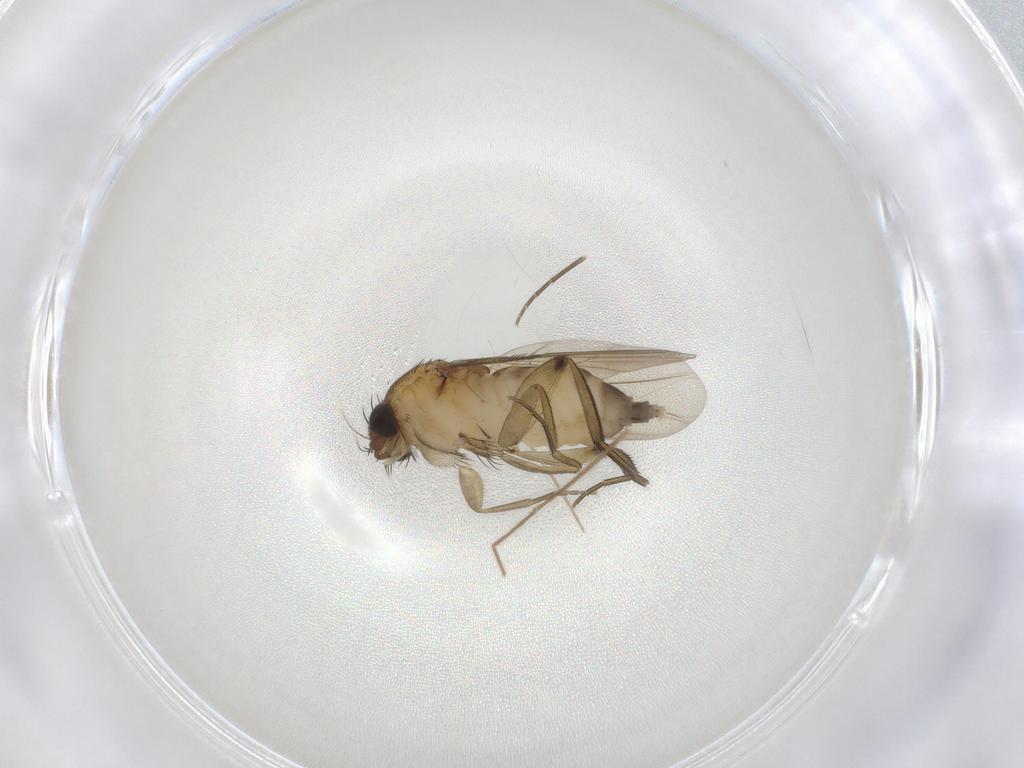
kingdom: Animalia
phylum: Arthropoda
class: Insecta
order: Diptera
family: Phoridae
